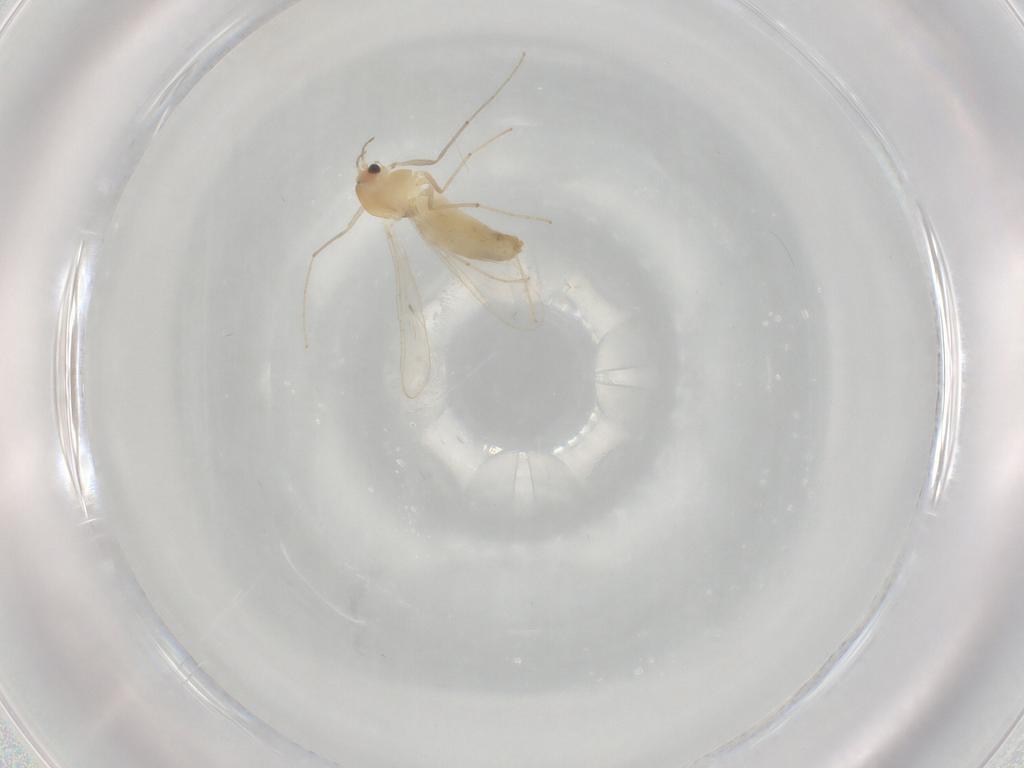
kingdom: Animalia
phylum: Arthropoda
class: Insecta
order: Diptera
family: Chironomidae
